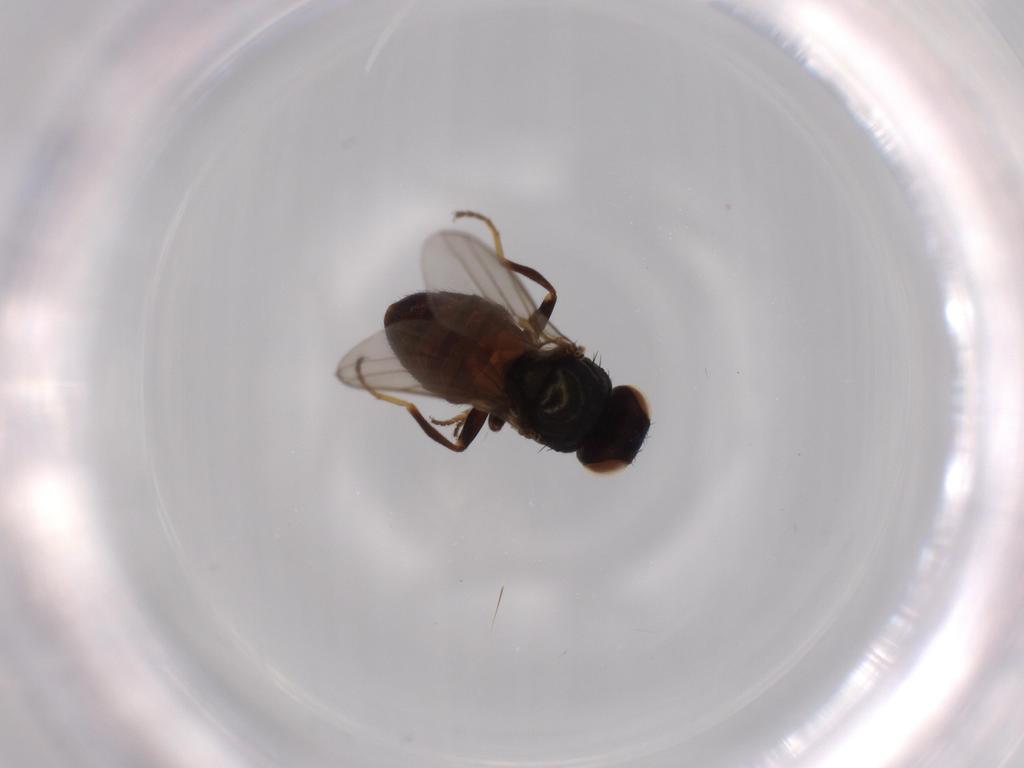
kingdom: Animalia
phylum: Arthropoda
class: Insecta
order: Diptera
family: Chloropidae
